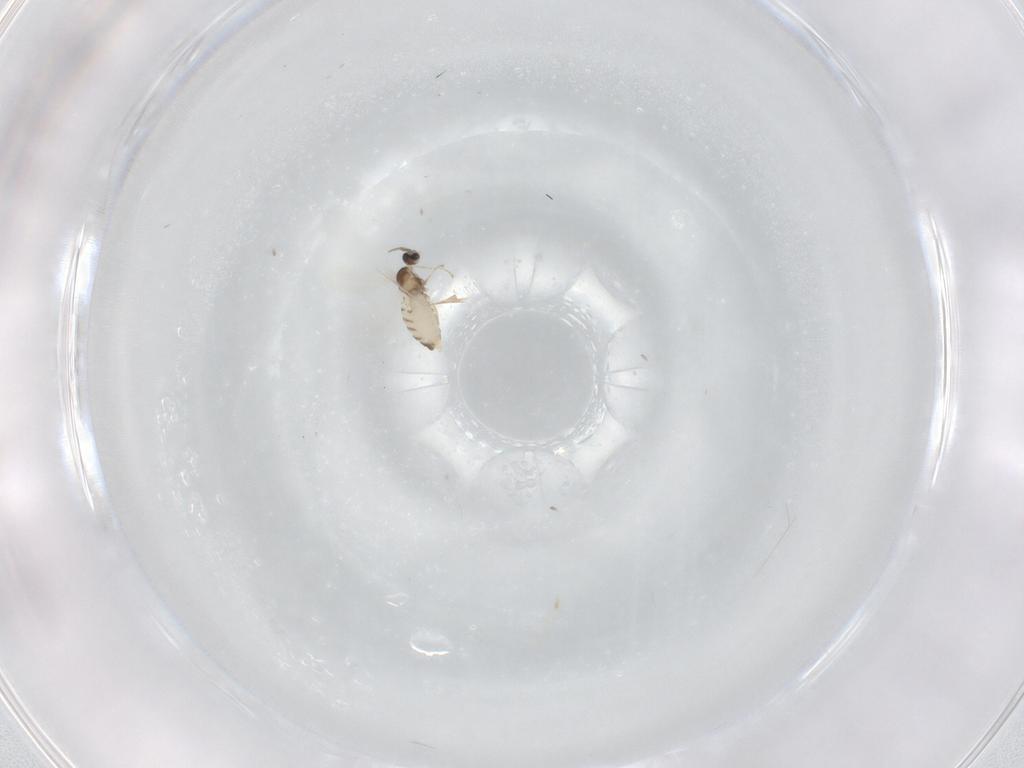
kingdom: Animalia
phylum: Arthropoda
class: Insecta
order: Diptera
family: Cecidomyiidae
